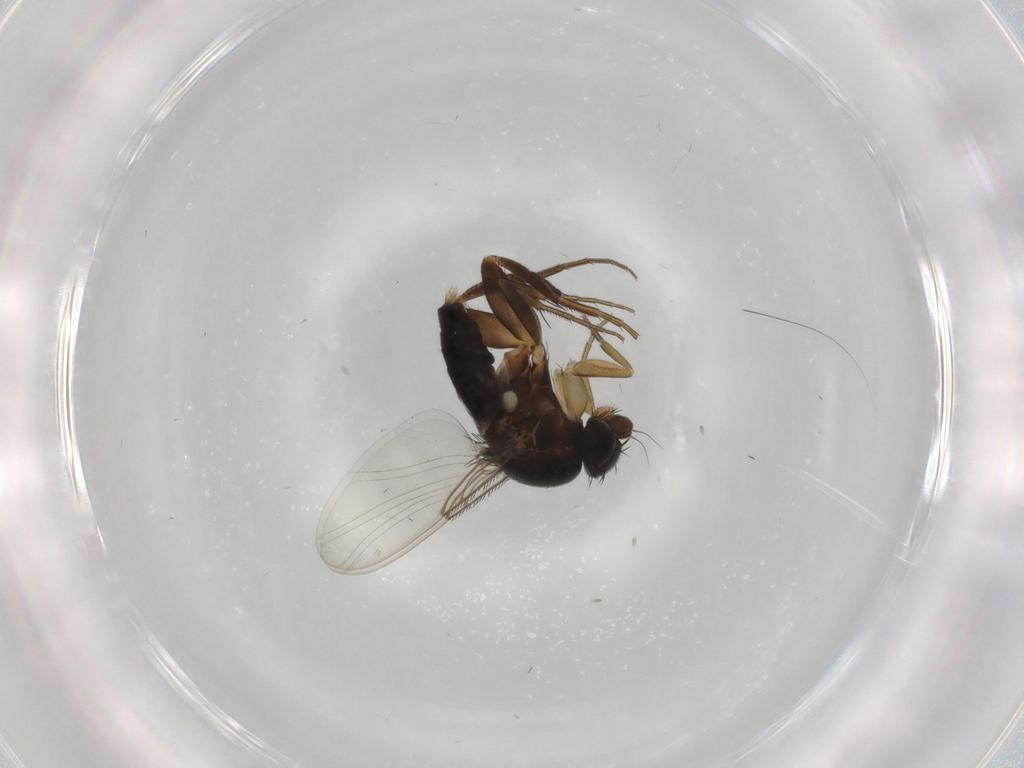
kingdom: Animalia
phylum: Arthropoda
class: Insecta
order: Diptera
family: Phoridae
